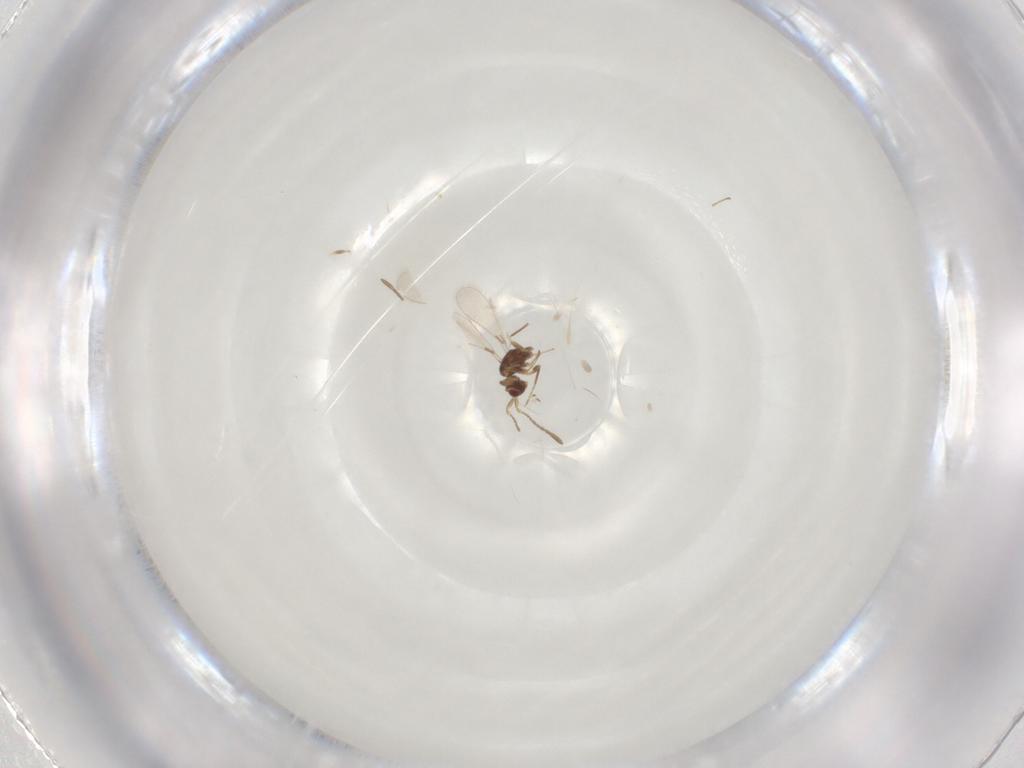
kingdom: Animalia
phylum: Arthropoda
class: Insecta
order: Hymenoptera
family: Mymaridae
